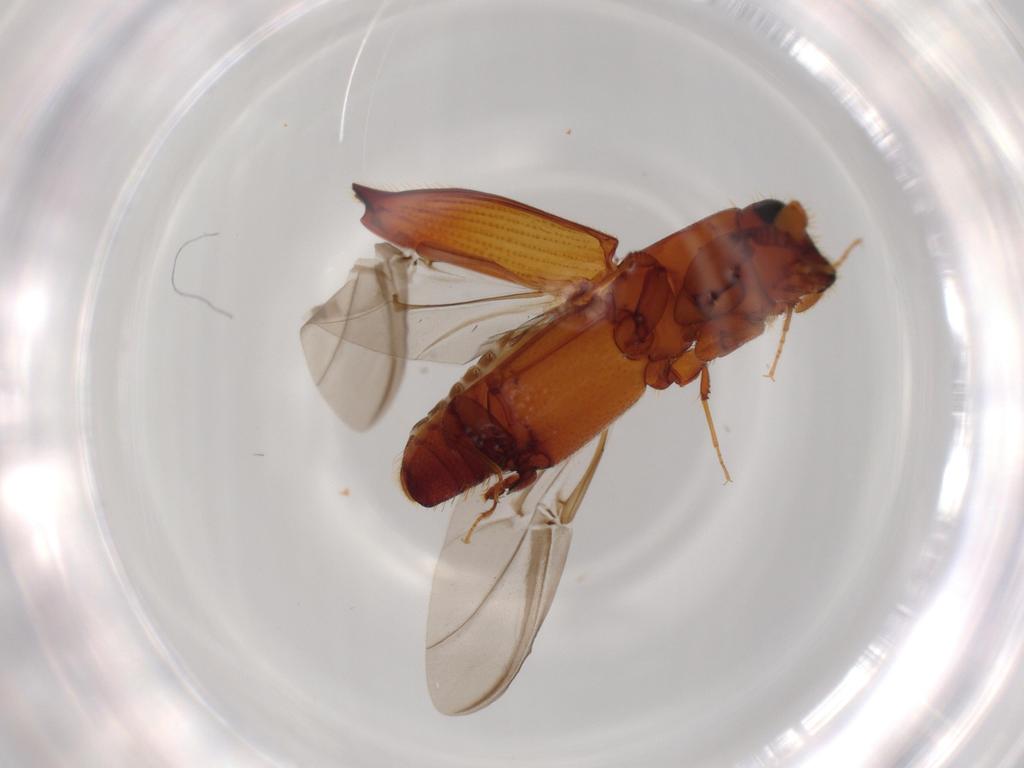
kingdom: Animalia
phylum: Arthropoda
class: Insecta
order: Coleoptera
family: Curculionidae
